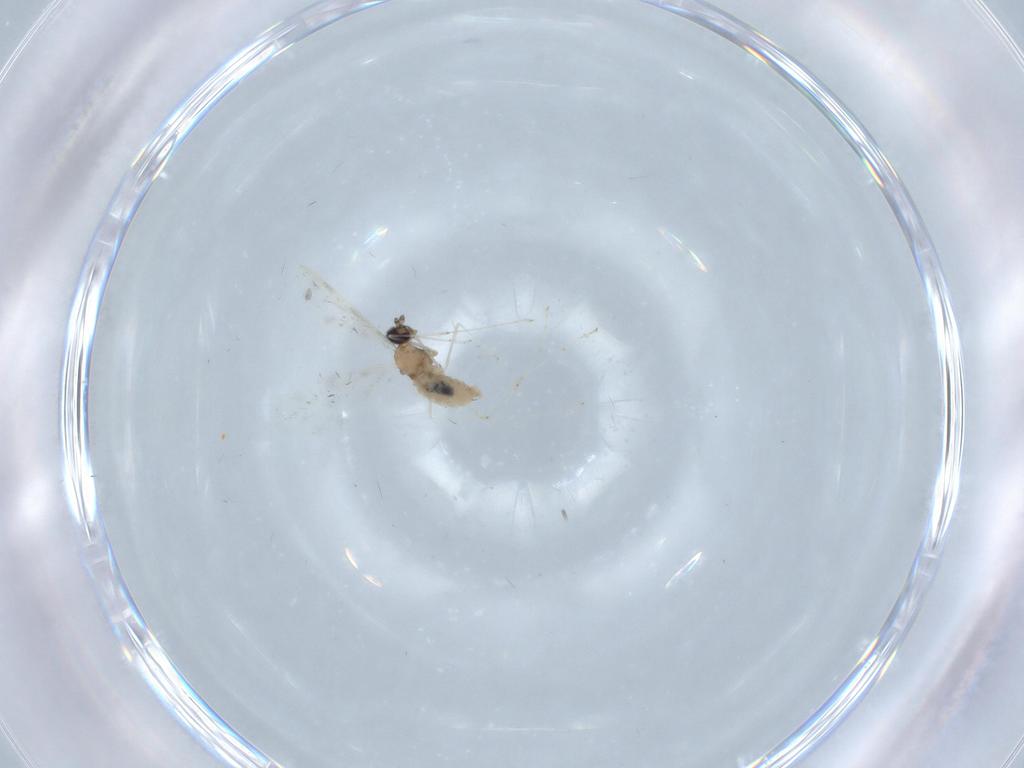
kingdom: Animalia
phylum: Arthropoda
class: Insecta
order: Diptera
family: Cecidomyiidae
